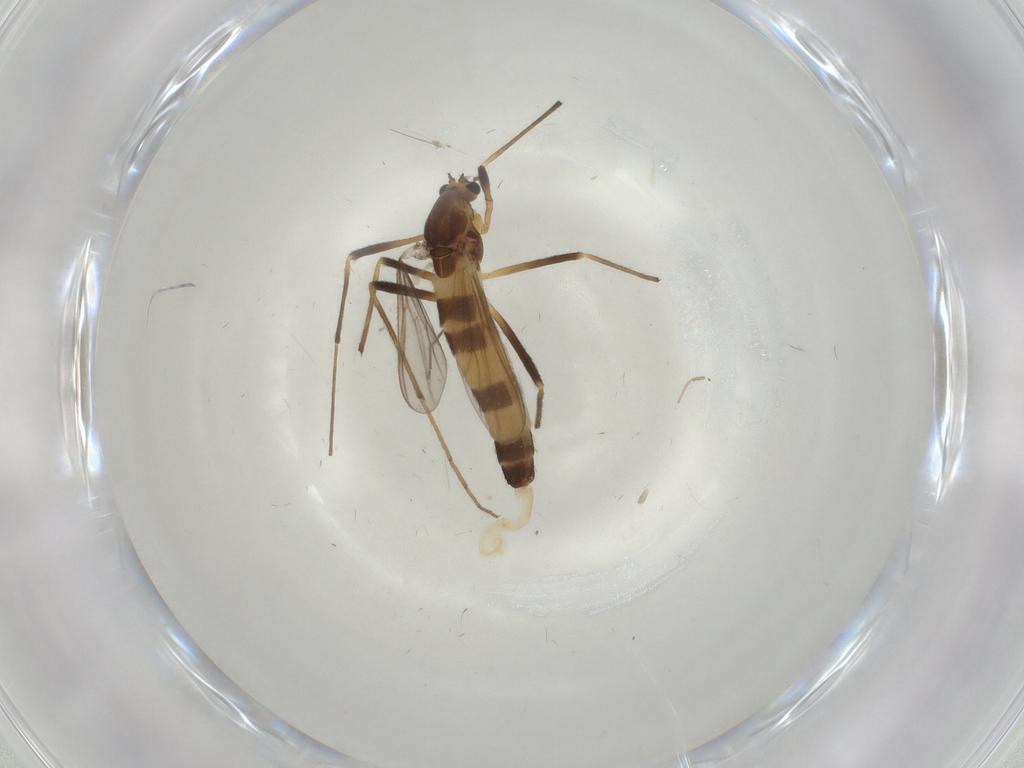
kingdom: Animalia
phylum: Arthropoda
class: Insecta
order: Diptera
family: Chironomidae
